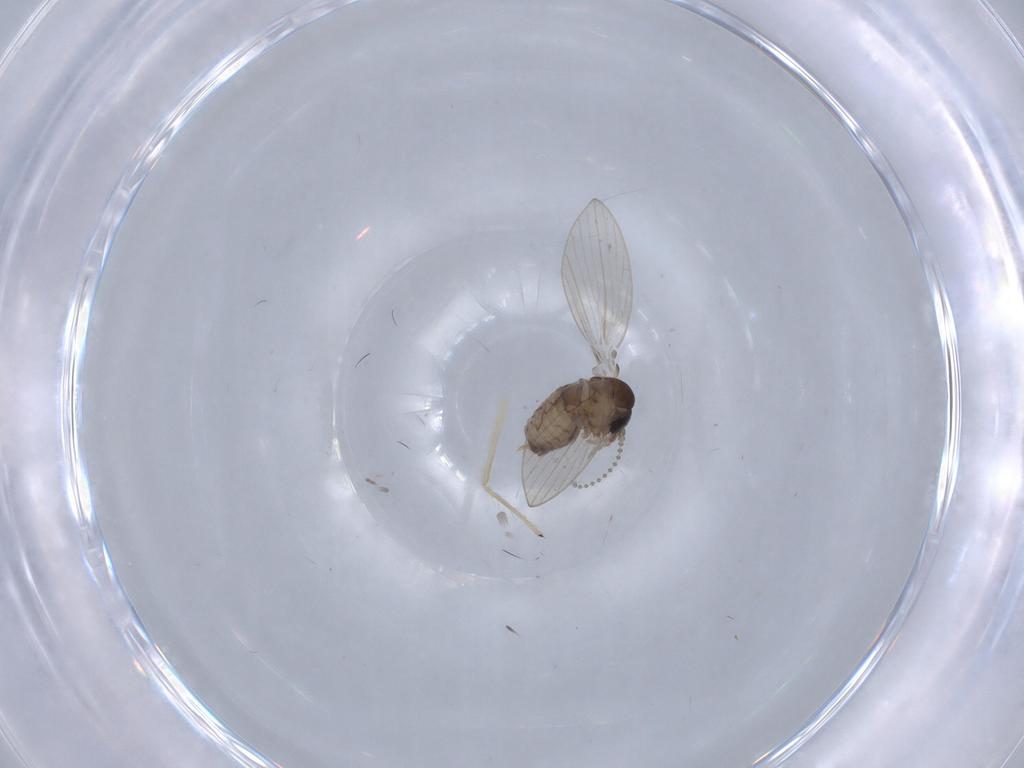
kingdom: Animalia
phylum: Arthropoda
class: Insecta
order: Diptera
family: Psychodidae
